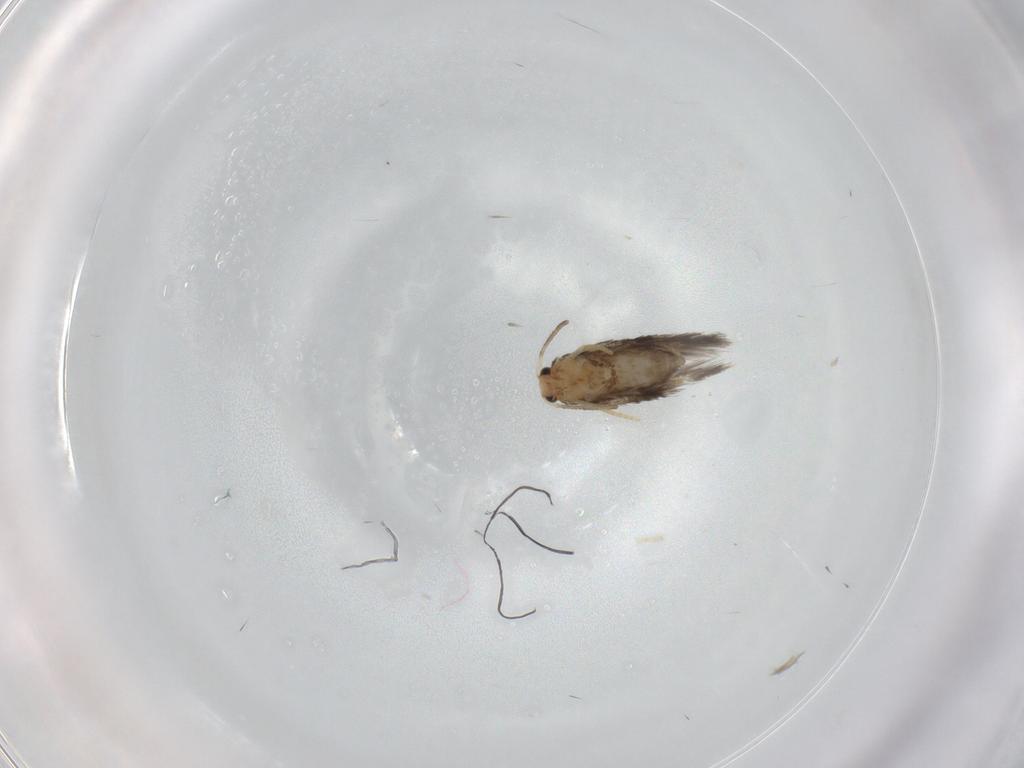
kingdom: Animalia
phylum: Arthropoda
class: Insecta
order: Lepidoptera
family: Nepticulidae
